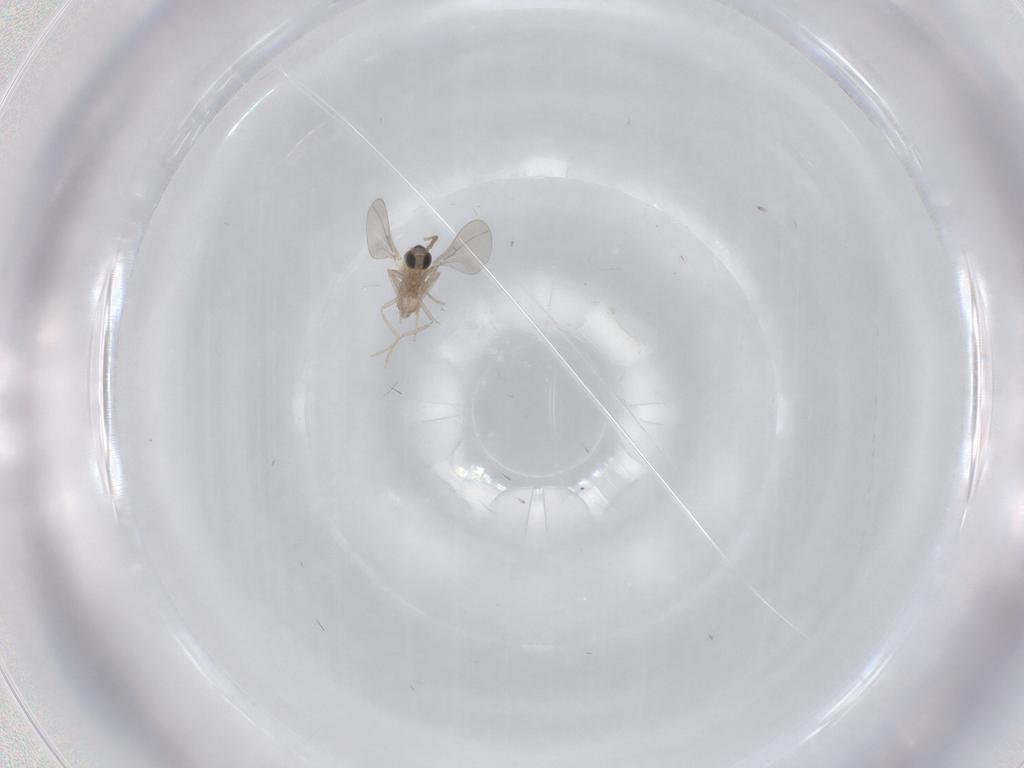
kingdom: Animalia
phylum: Arthropoda
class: Insecta
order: Diptera
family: Cecidomyiidae
